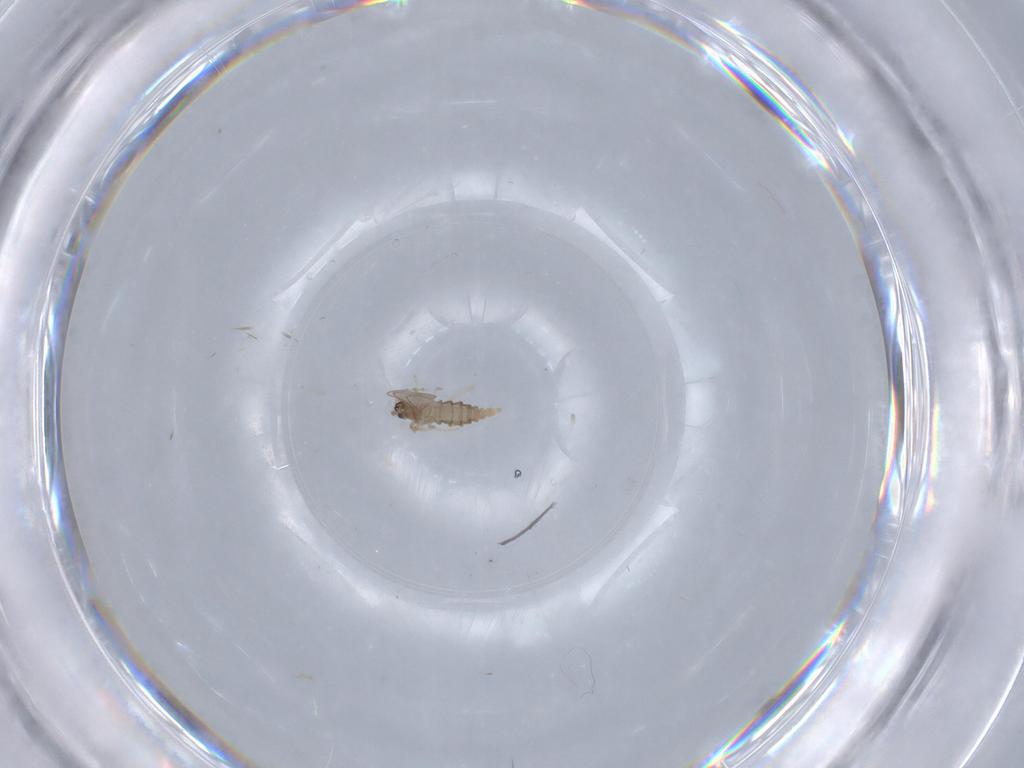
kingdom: Animalia
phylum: Arthropoda
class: Insecta
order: Diptera
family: Cecidomyiidae
